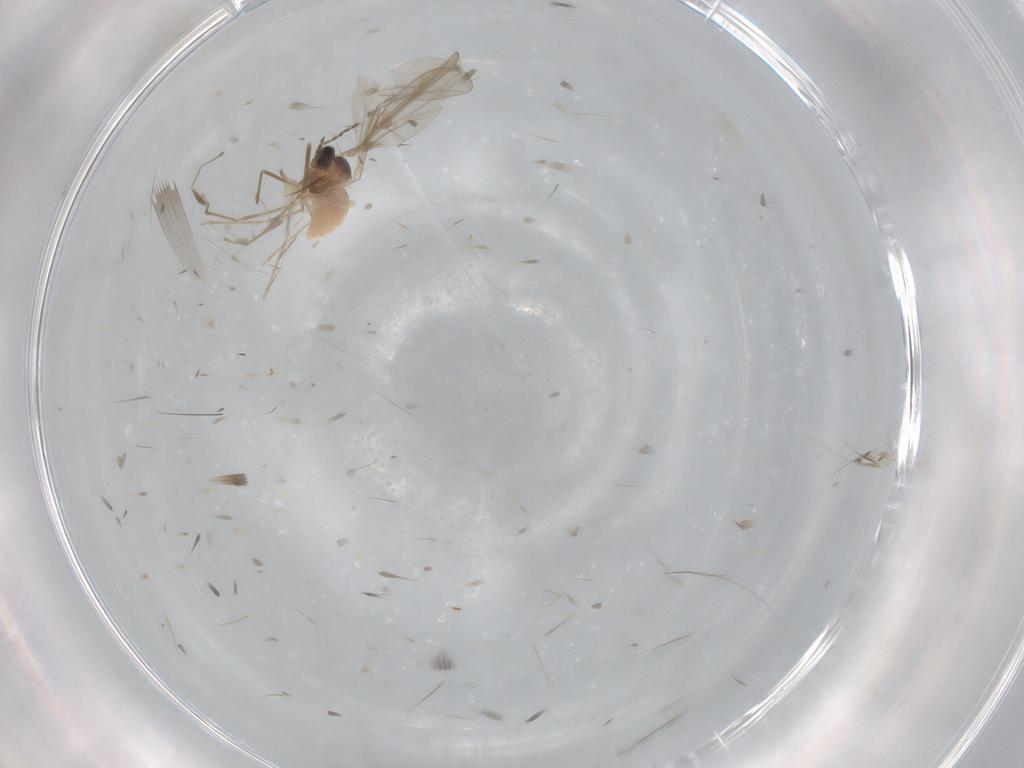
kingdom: Animalia
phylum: Arthropoda
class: Insecta
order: Diptera
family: Cecidomyiidae
